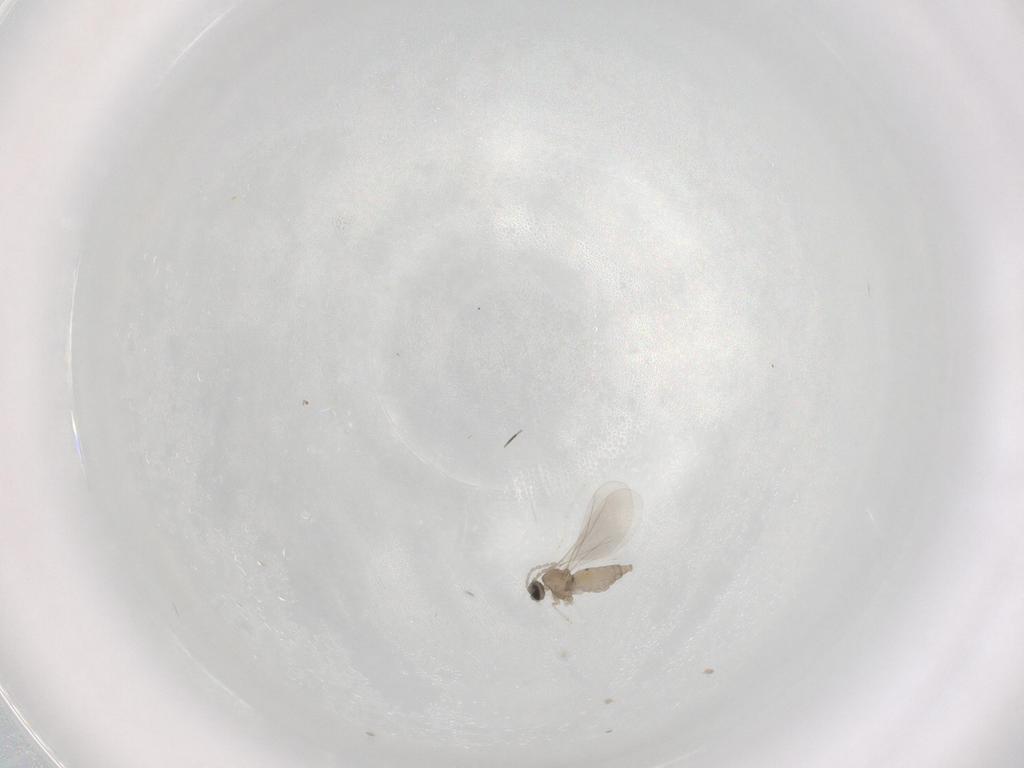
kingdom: Animalia
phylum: Arthropoda
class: Insecta
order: Diptera
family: Cecidomyiidae
